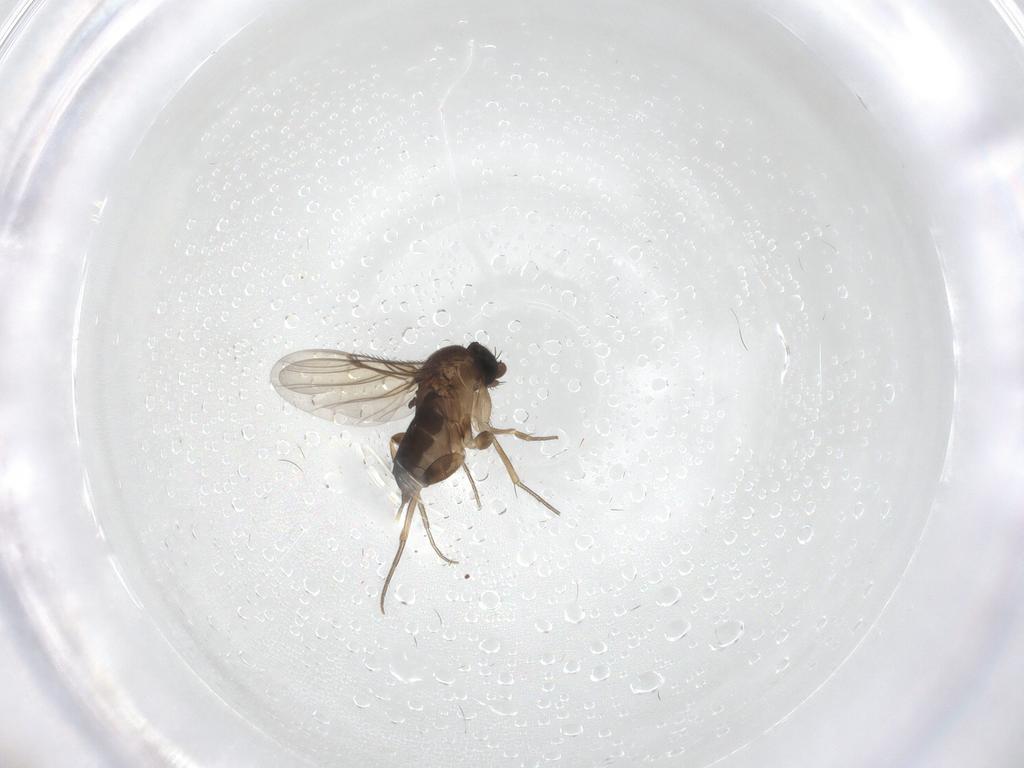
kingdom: Animalia
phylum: Arthropoda
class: Insecta
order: Diptera
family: Phoridae
